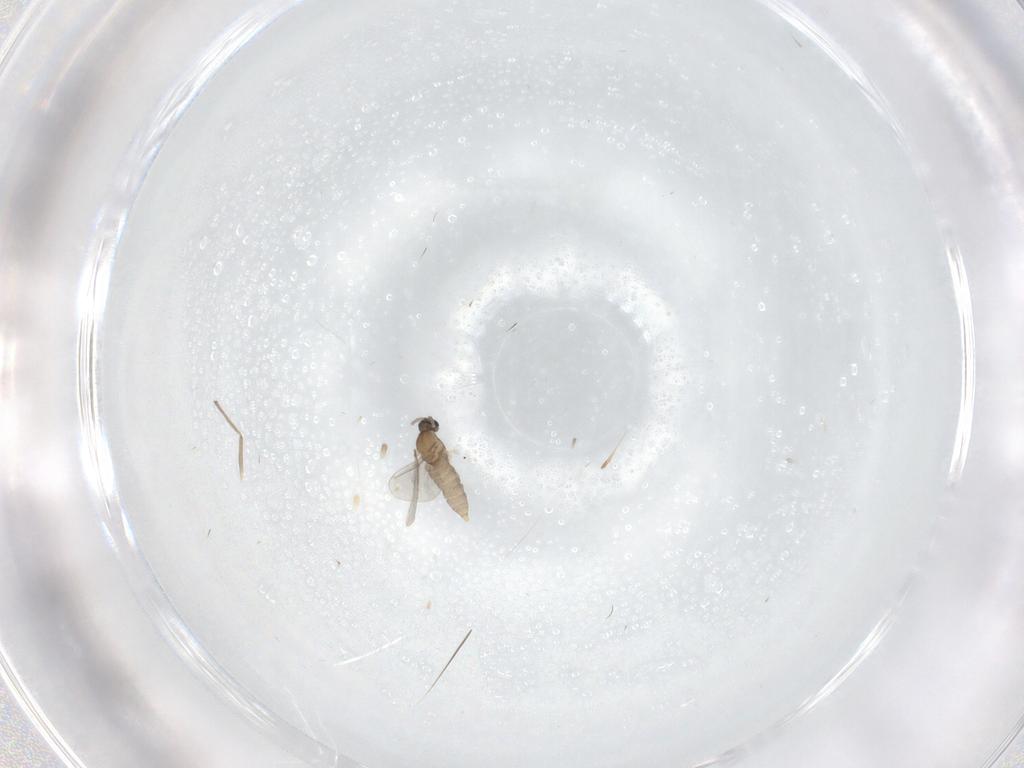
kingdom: Animalia
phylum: Arthropoda
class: Insecta
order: Diptera
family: Cecidomyiidae
